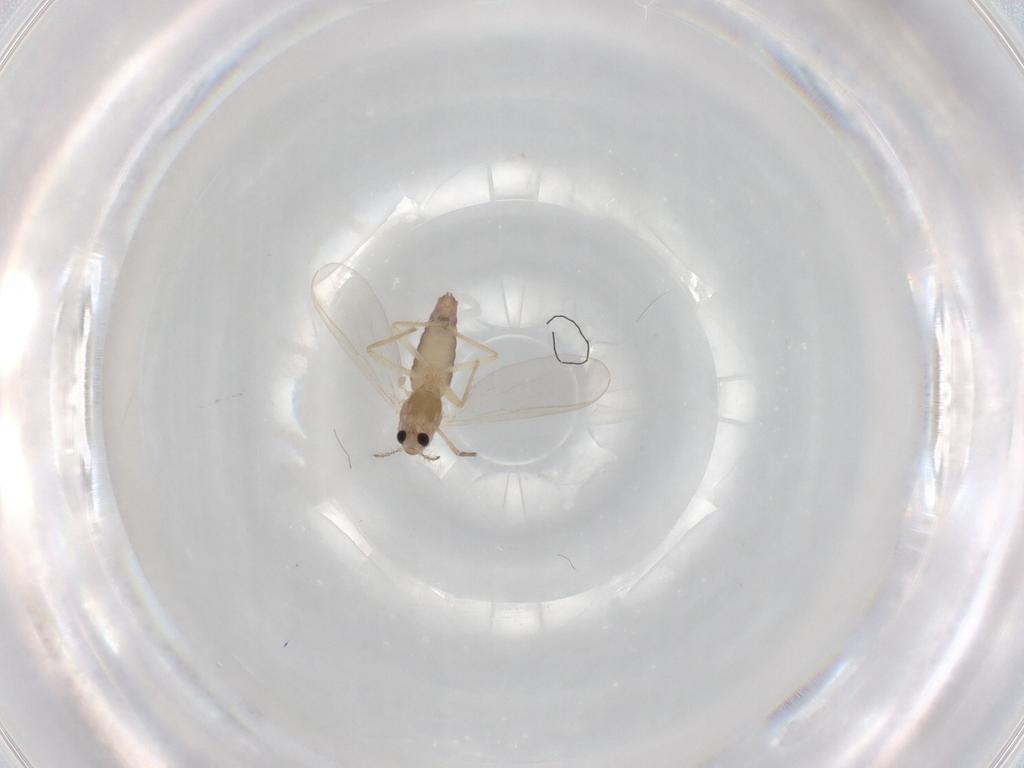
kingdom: Animalia
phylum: Arthropoda
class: Insecta
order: Diptera
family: Chironomidae
